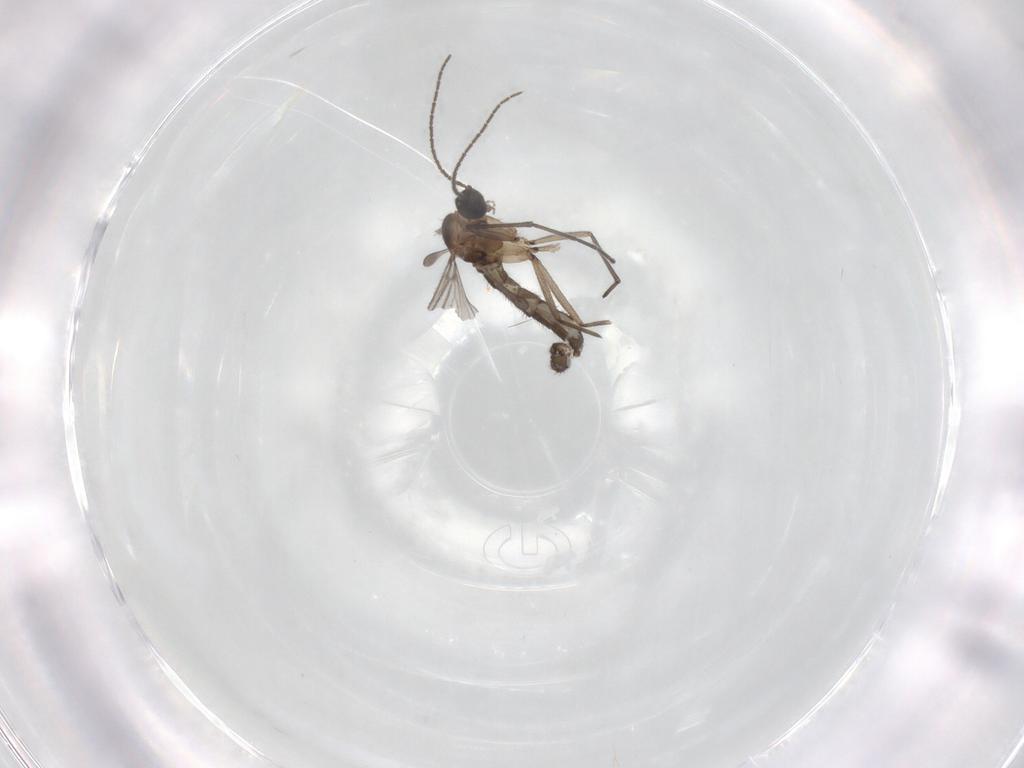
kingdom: Animalia
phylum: Arthropoda
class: Insecta
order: Diptera
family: Sciaridae
